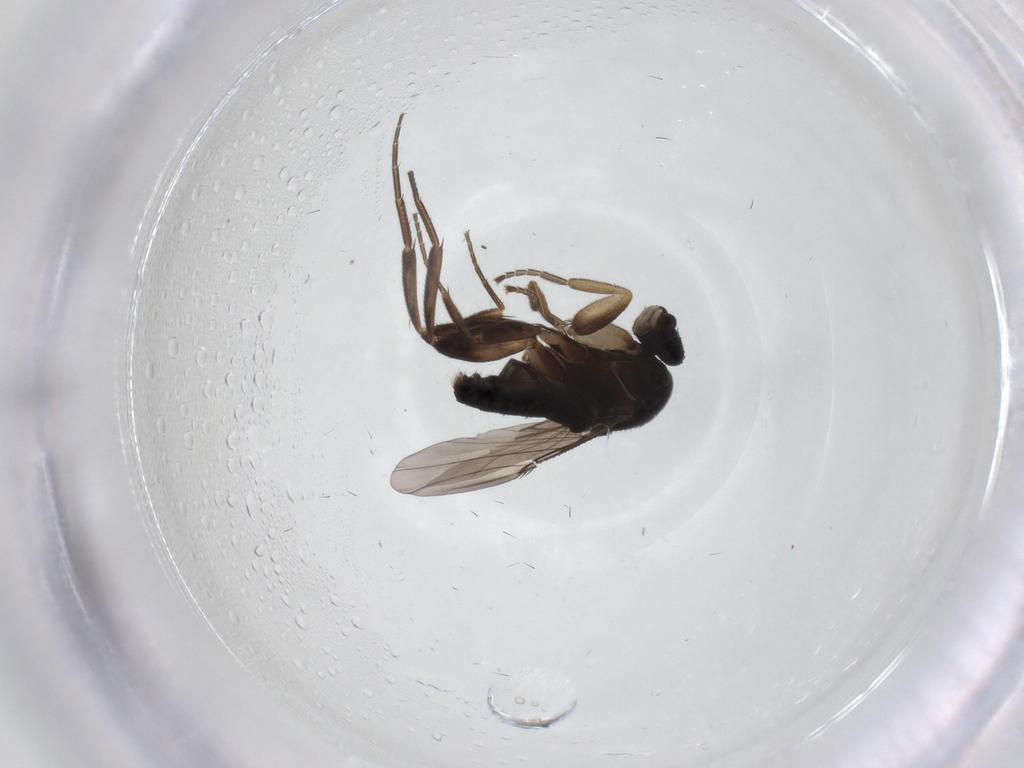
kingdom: Animalia
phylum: Arthropoda
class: Insecta
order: Diptera
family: Phoridae
